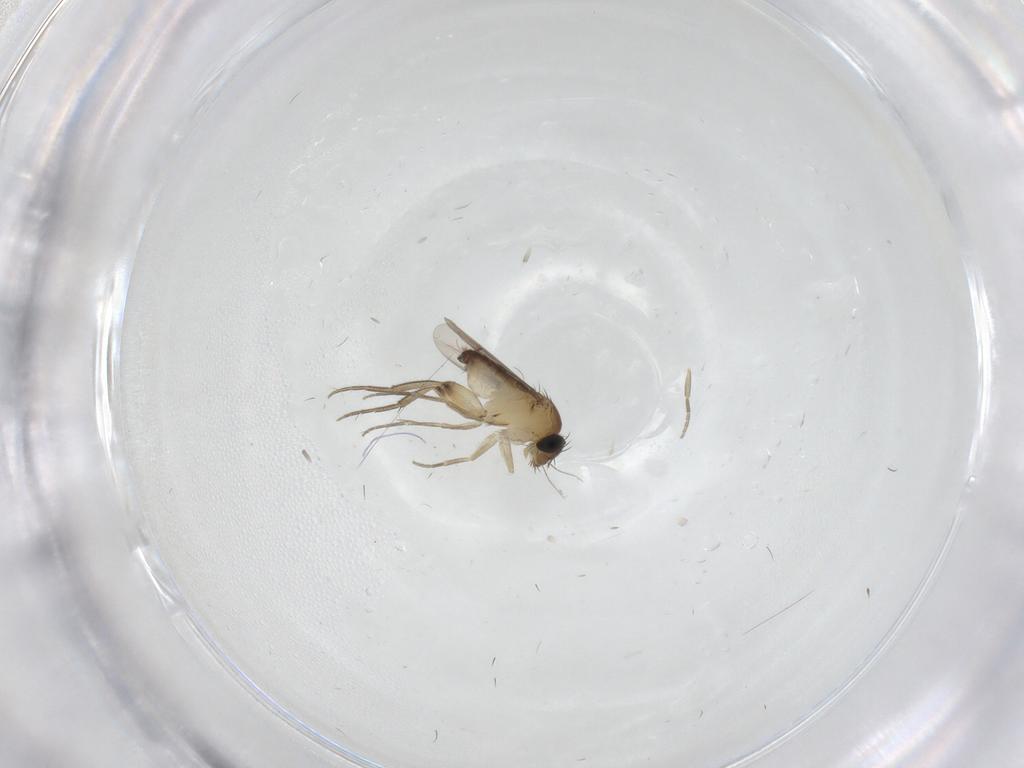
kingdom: Animalia
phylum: Arthropoda
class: Insecta
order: Diptera
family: Phoridae
